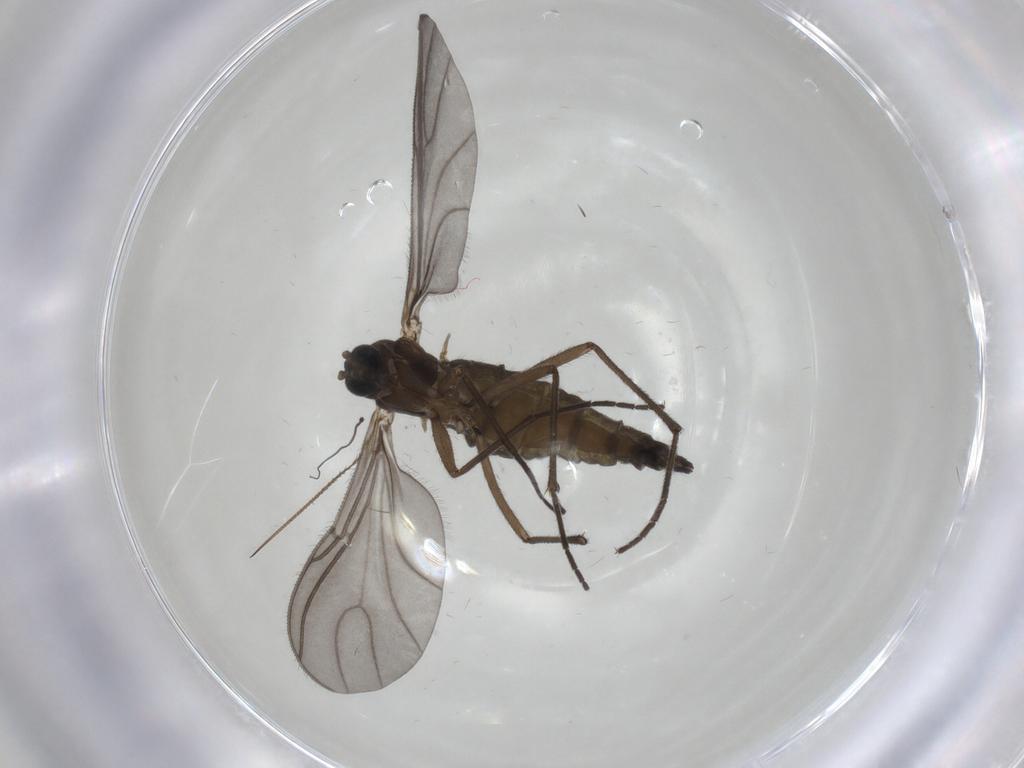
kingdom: Animalia
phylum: Arthropoda
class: Insecta
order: Diptera
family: Sciaridae
